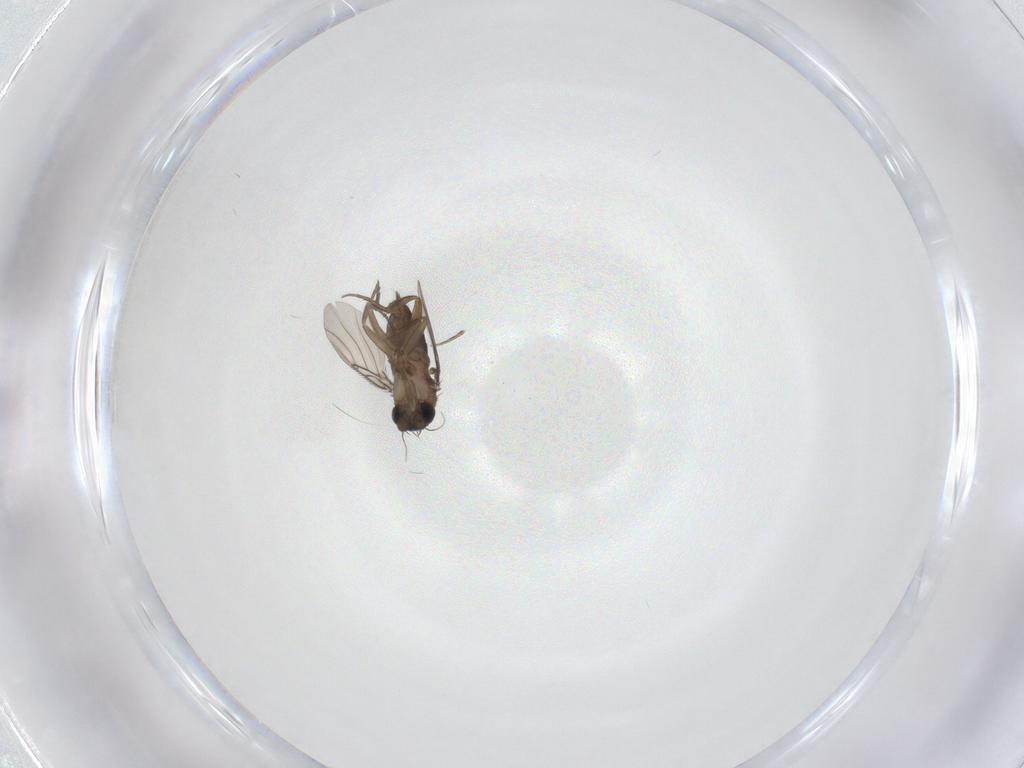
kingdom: Animalia
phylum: Arthropoda
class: Insecta
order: Diptera
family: Phoridae
